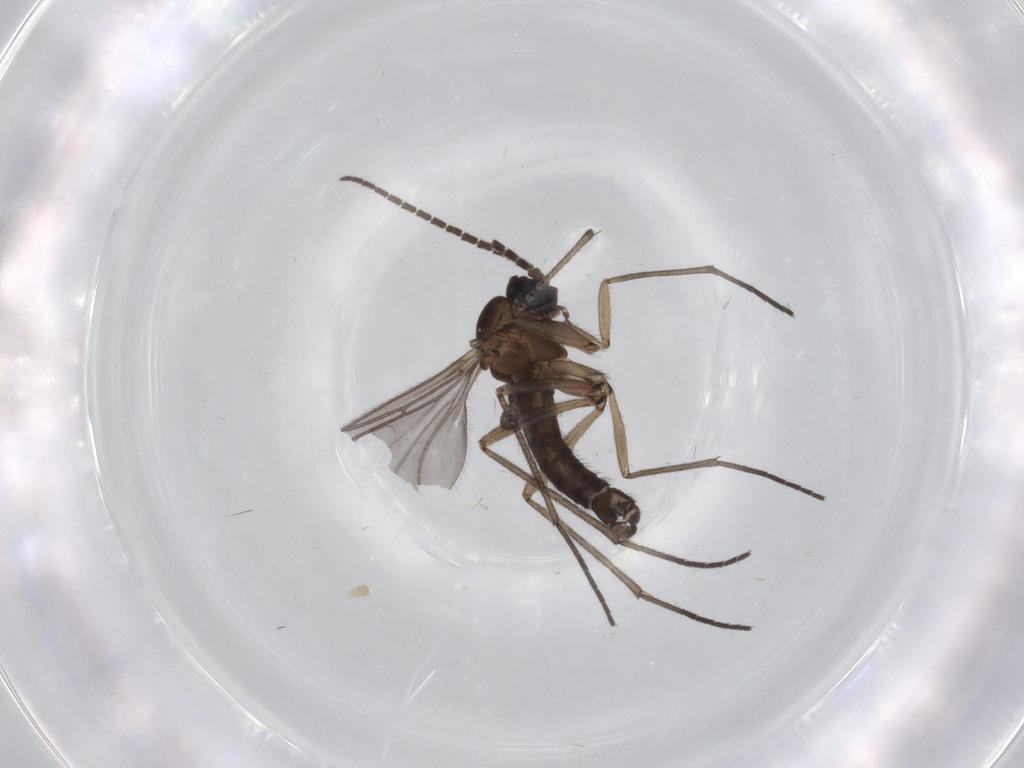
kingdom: Animalia
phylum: Arthropoda
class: Insecta
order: Diptera
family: Sciaridae
